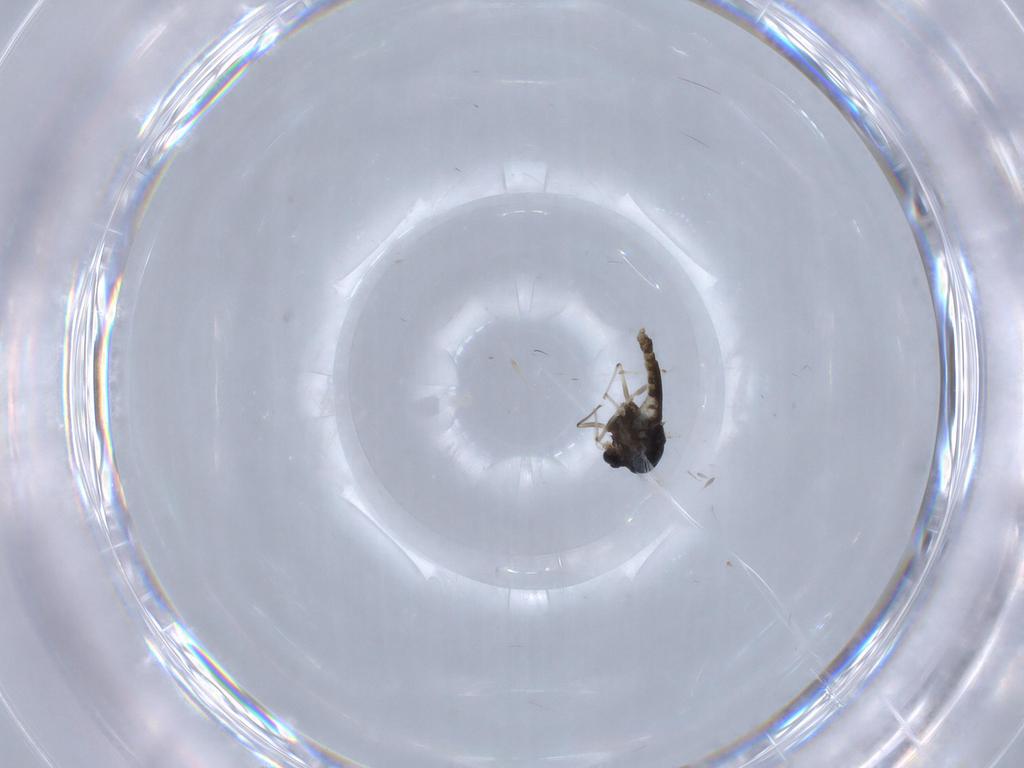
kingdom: Animalia
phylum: Arthropoda
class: Insecta
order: Diptera
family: Chironomidae
